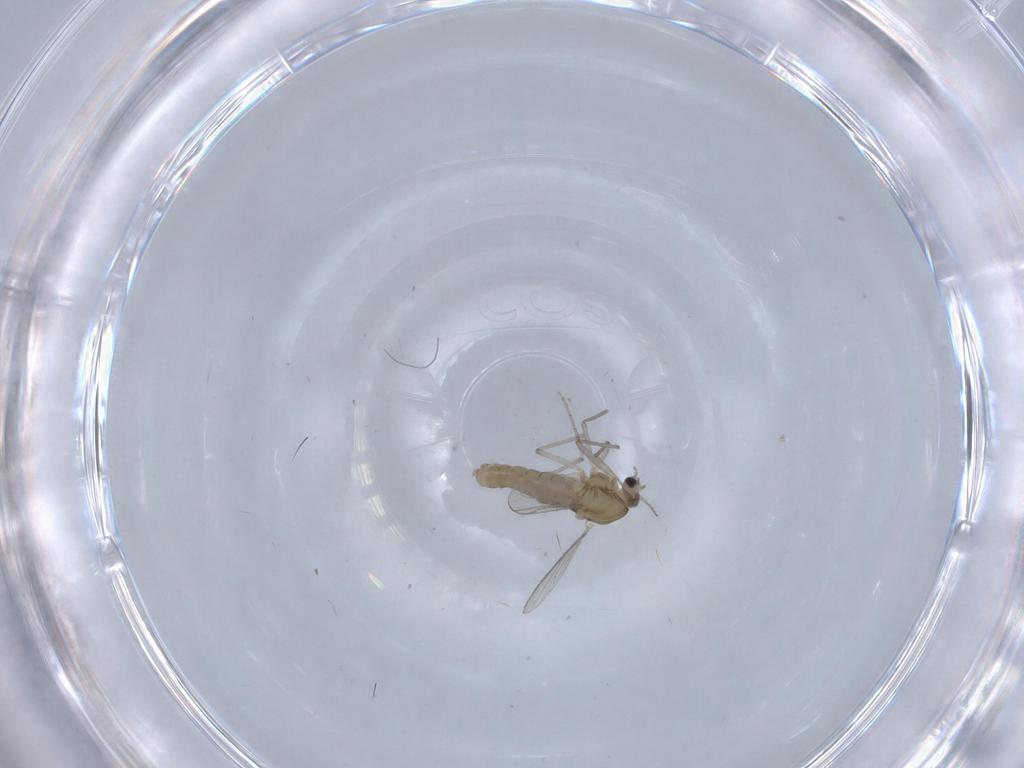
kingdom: Animalia
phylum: Arthropoda
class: Insecta
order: Diptera
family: Chironomidae
